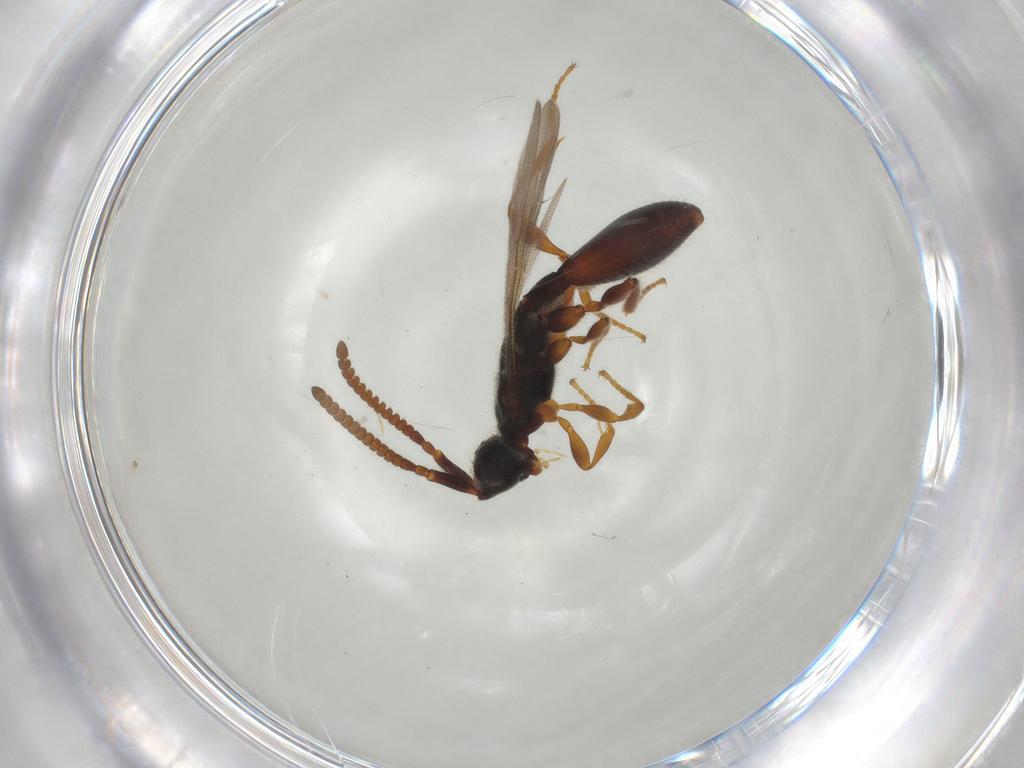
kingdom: Animalia
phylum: Arthropoda
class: Insecta
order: Hymenoptera
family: Diapriidae
